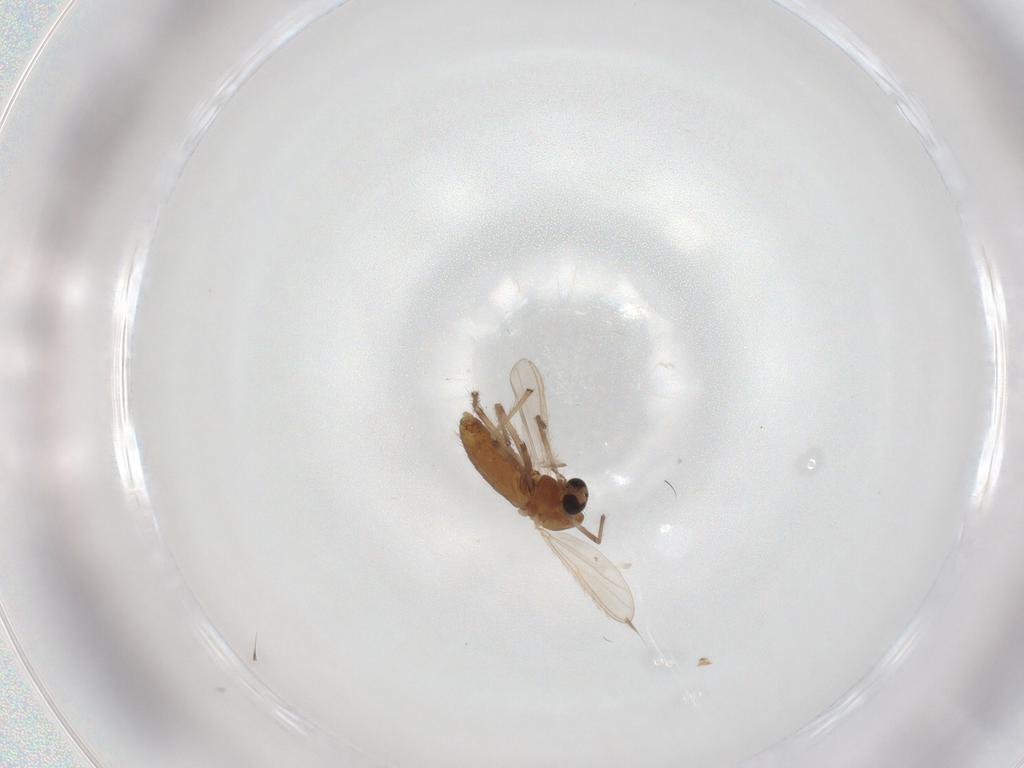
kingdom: Animalia
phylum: Arthropoda
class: Insecta
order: Diptera
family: Chironomidae
